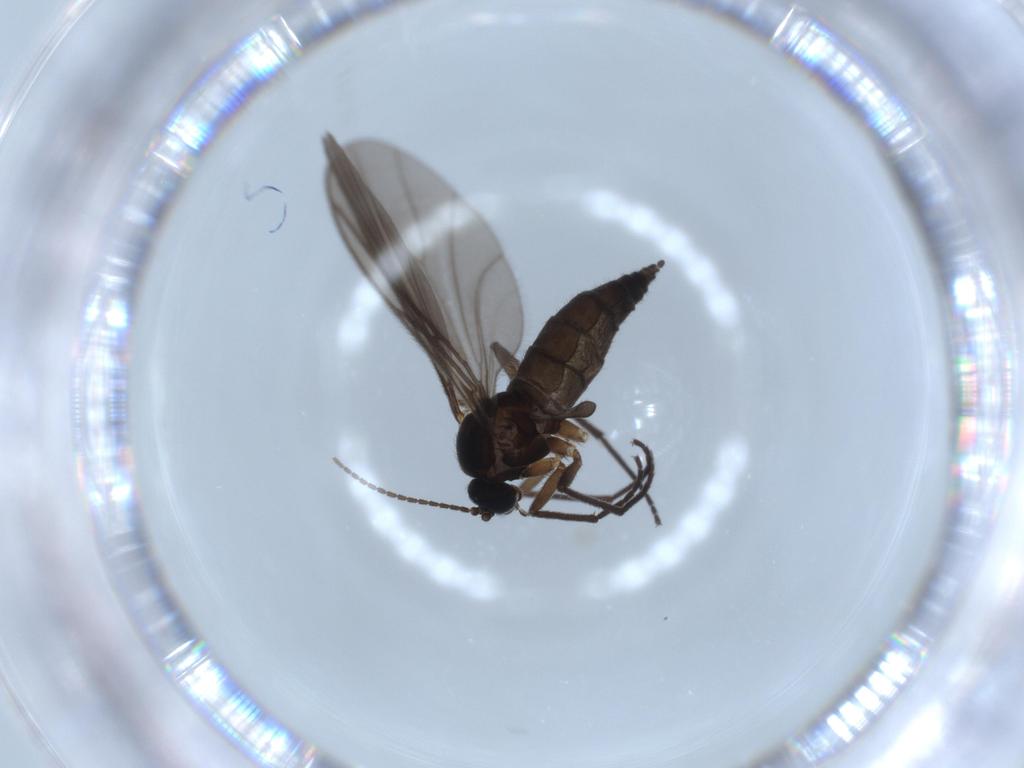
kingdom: Animalia
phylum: Arthropoda
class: Insecta
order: Diptera
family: Sciaridae
